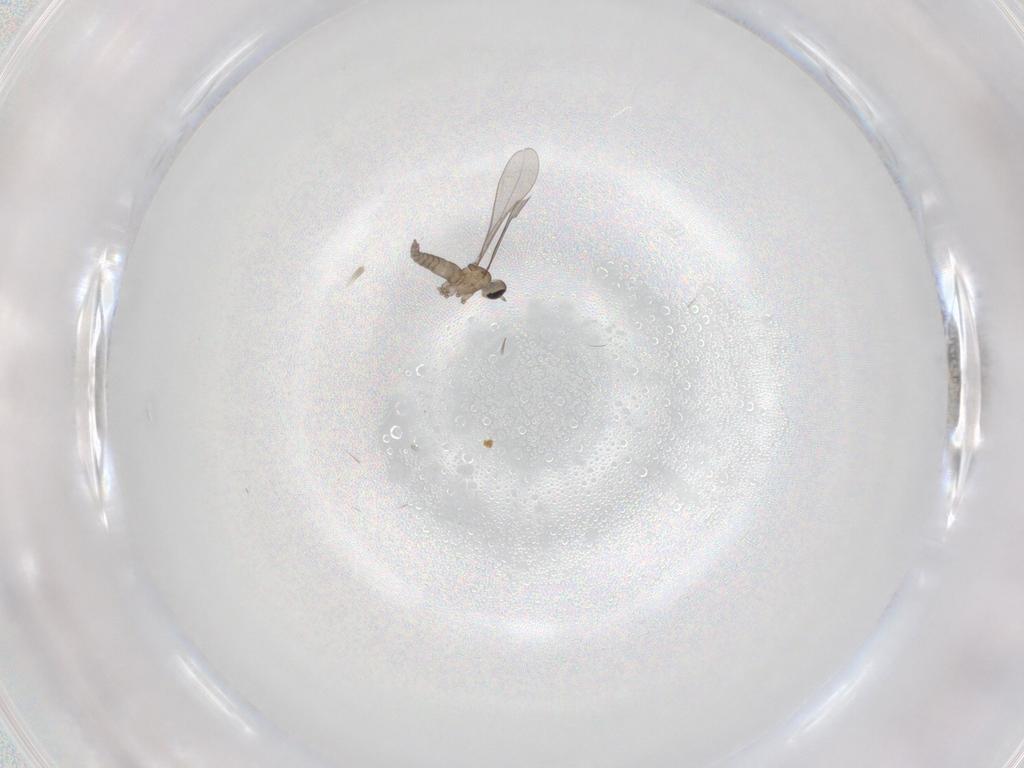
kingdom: Animalia
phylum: Arthropoda
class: Insecta
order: Diptera
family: Cecidomyiidae
